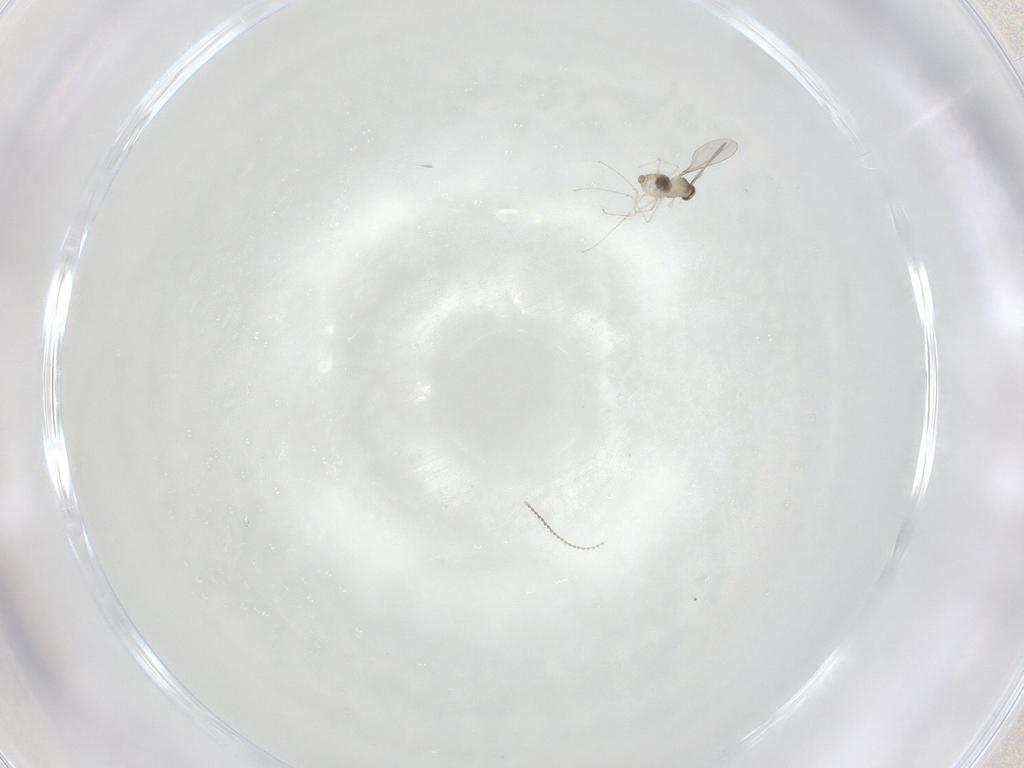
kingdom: Animalia
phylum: Arthropoda
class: Insecta
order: Diptera
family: Cecidomyiidae
